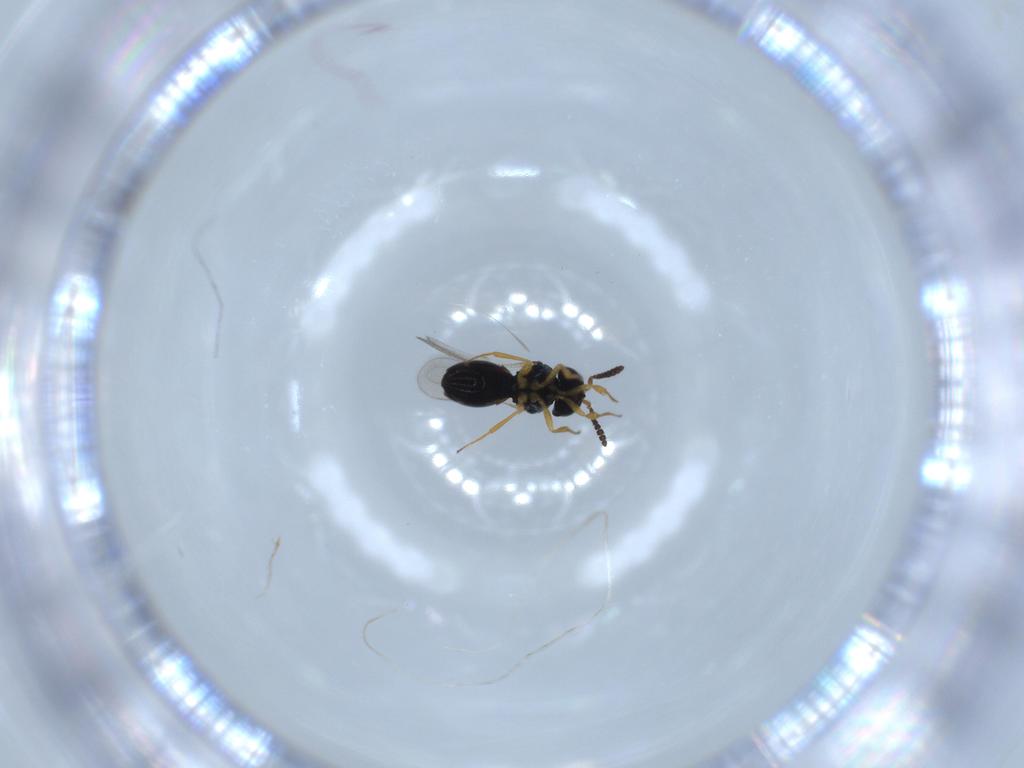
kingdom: Animalia
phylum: Arthropoda
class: Insecta
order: Hymenoptera
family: Scelionidae
